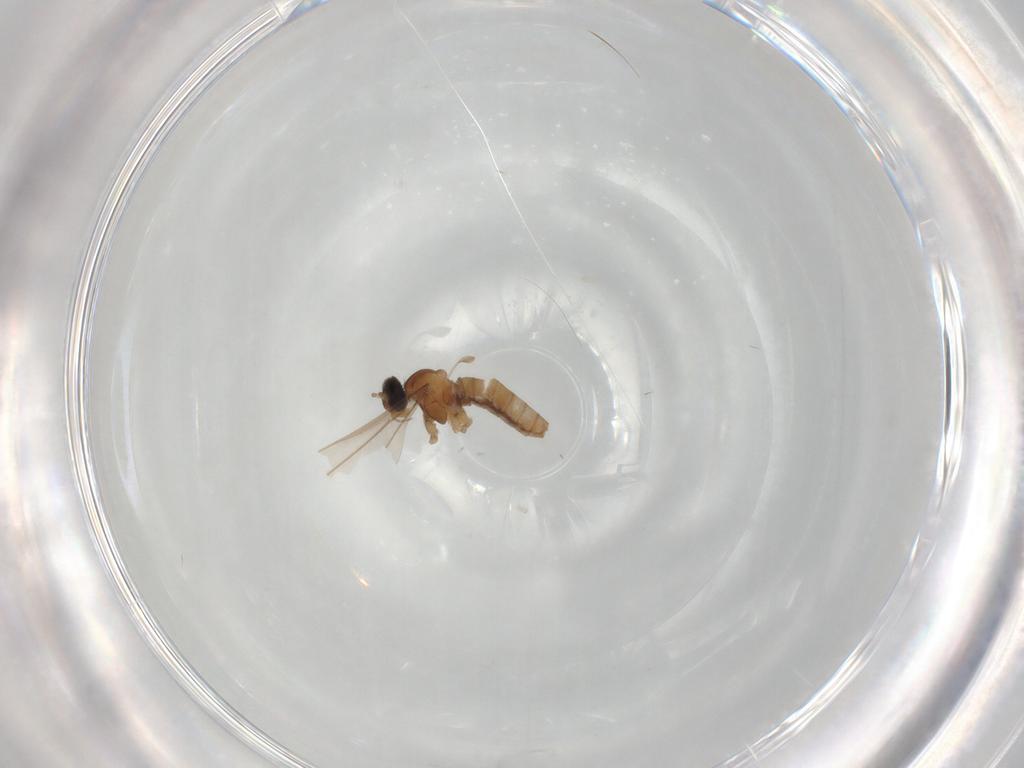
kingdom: Animalia
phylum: Arthropoda
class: Insecta
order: Diptera
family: Cecidomyiidae
